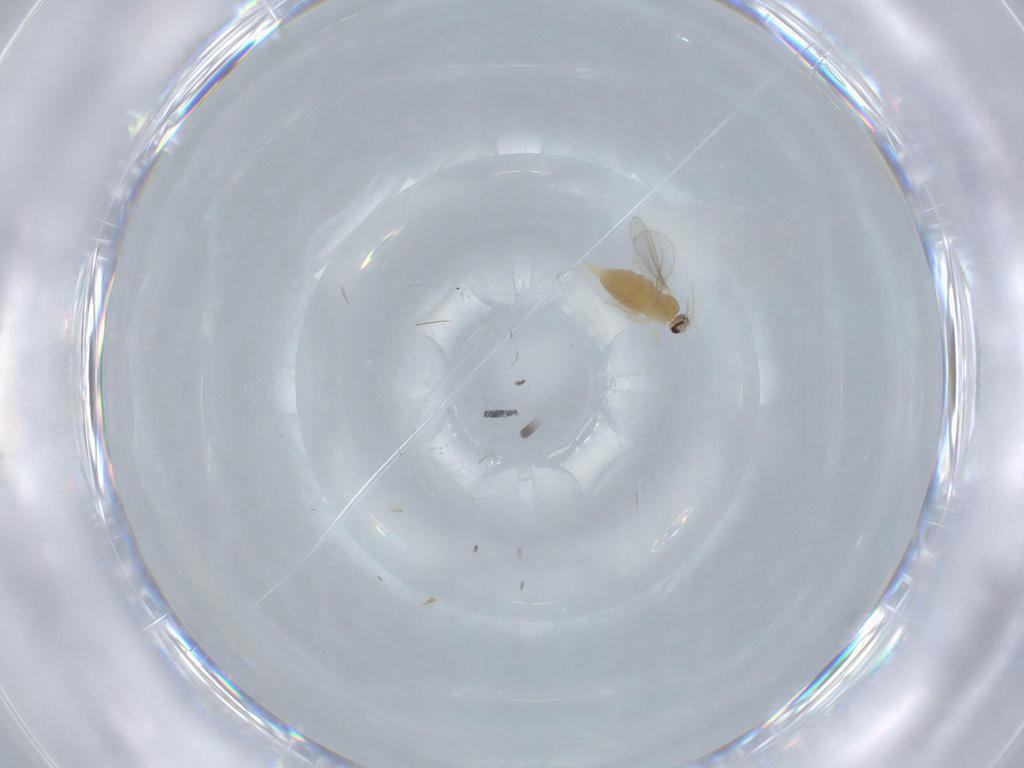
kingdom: Animalia
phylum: Arthropoda
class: Insecta
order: Diptera
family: Cecidomyiidae
